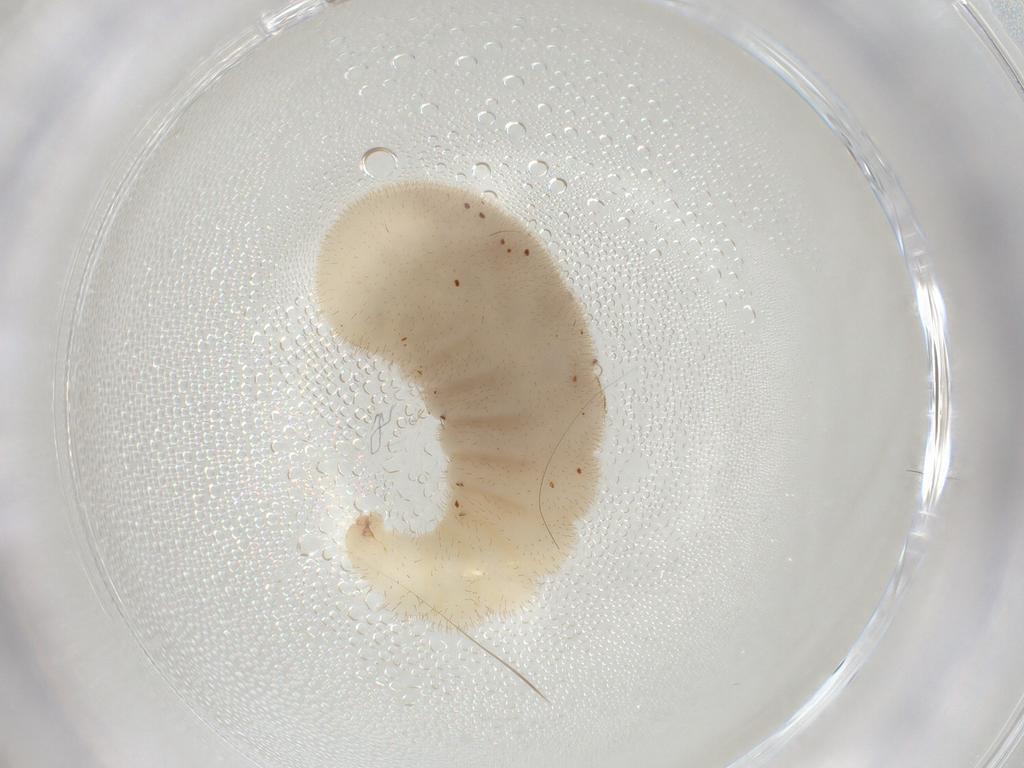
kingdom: Animalia
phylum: Arthropoda
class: Insecta
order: Hymenoptera
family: Formicidae
